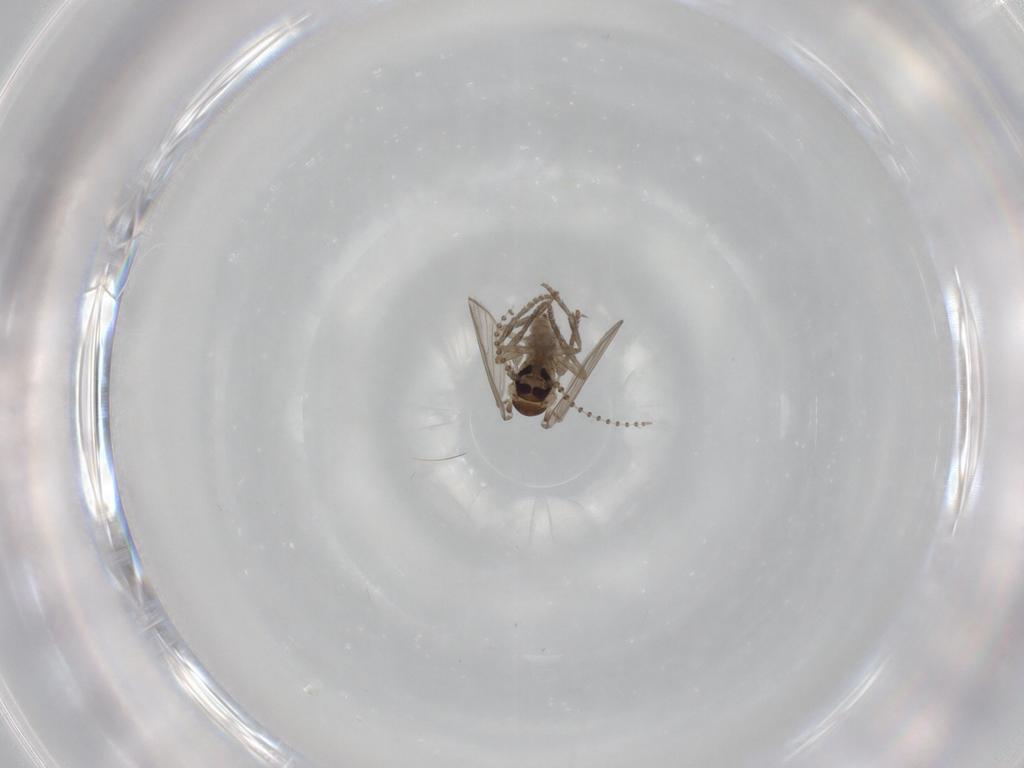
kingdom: Animalia
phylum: Arthropoda
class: Insecta
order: Diptera
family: Psychodidae
